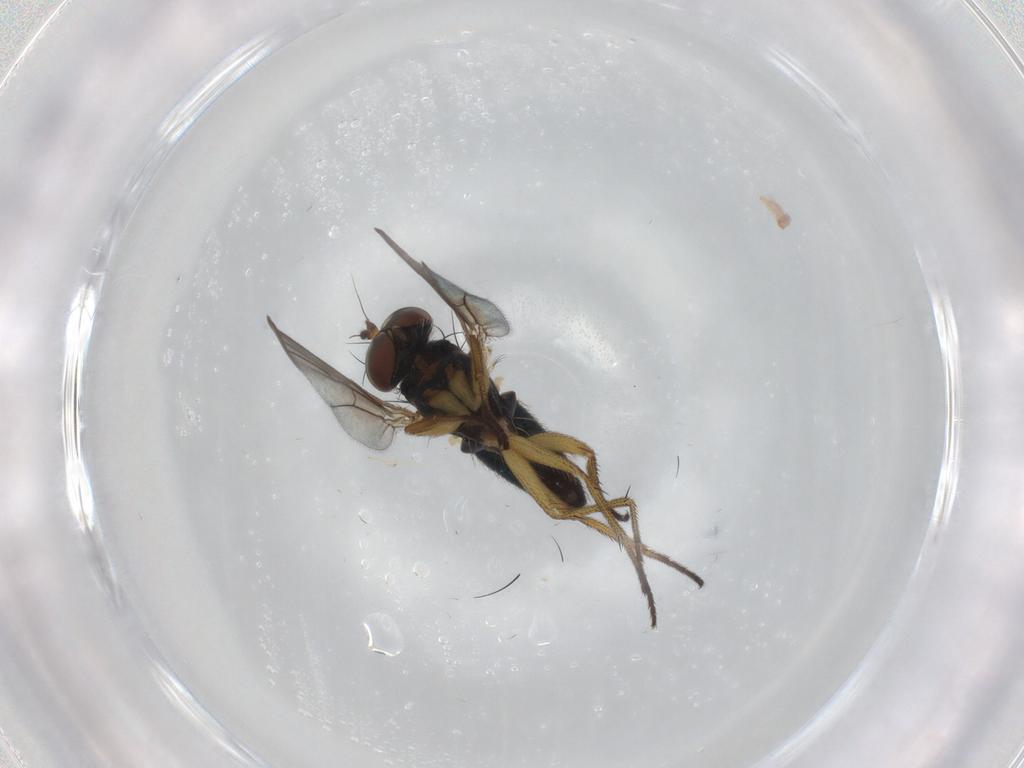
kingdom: Animalia
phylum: Arthropoda
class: Insecta
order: Diptera
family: Dolichopodidae
